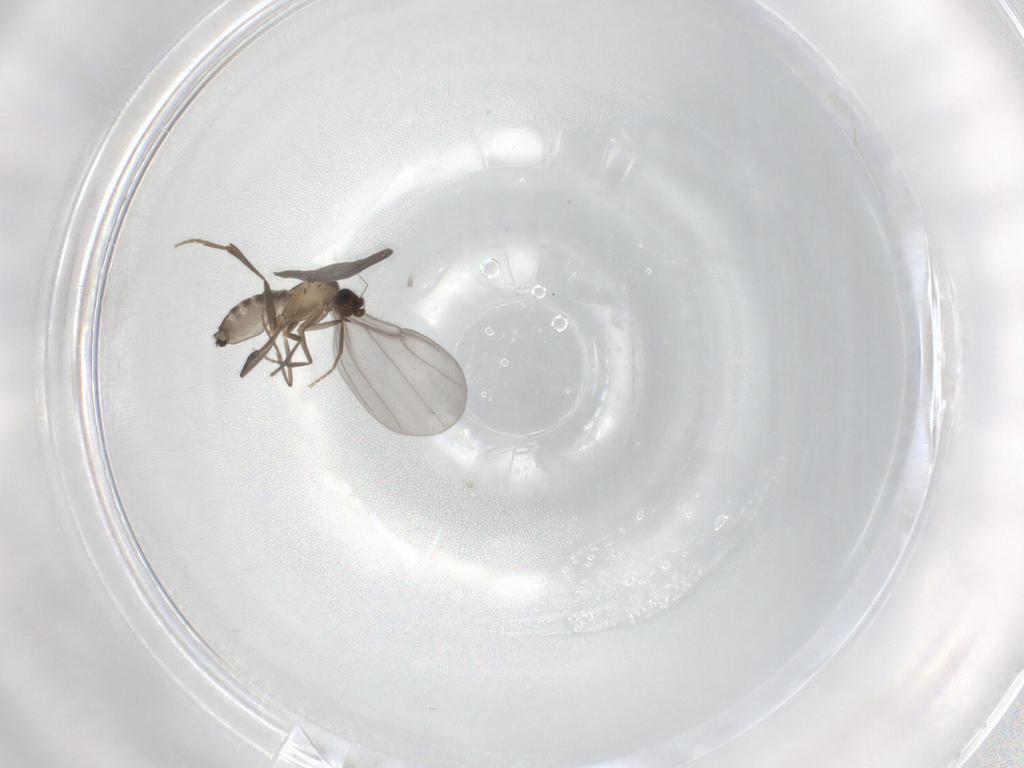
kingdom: Animalia
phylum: Arthropoda
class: Insecta
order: Diptera
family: Phoridae
